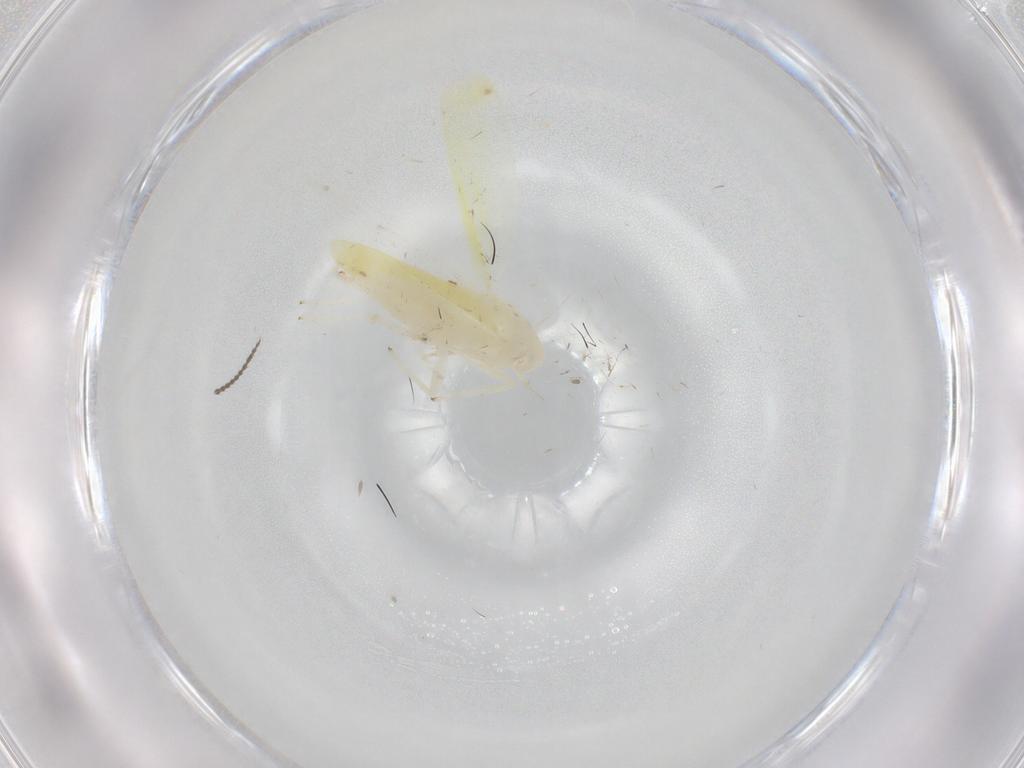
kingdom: Animalia
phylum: Arthropoda
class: Insecta
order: Hemiptera
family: Cicadellidae
